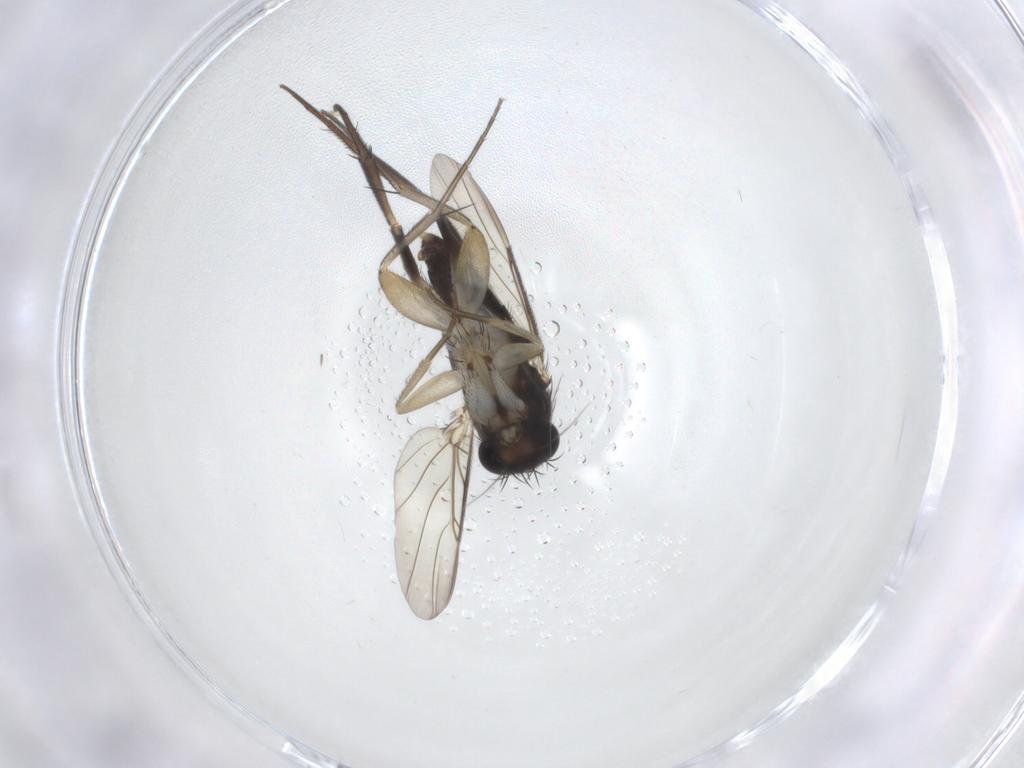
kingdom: Animalia
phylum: Arthropoda
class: Insecta
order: Diptera
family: Phoridae
